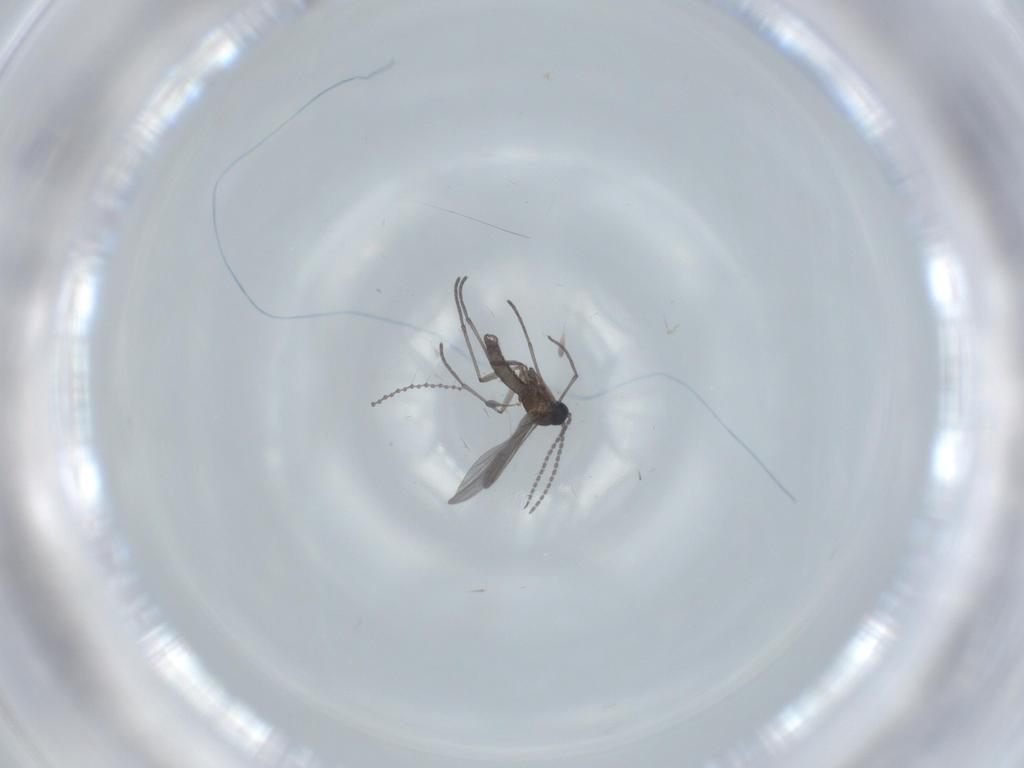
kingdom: Animalia
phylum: Arthropoda
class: Insecta
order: Diptera
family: Sciaridae
